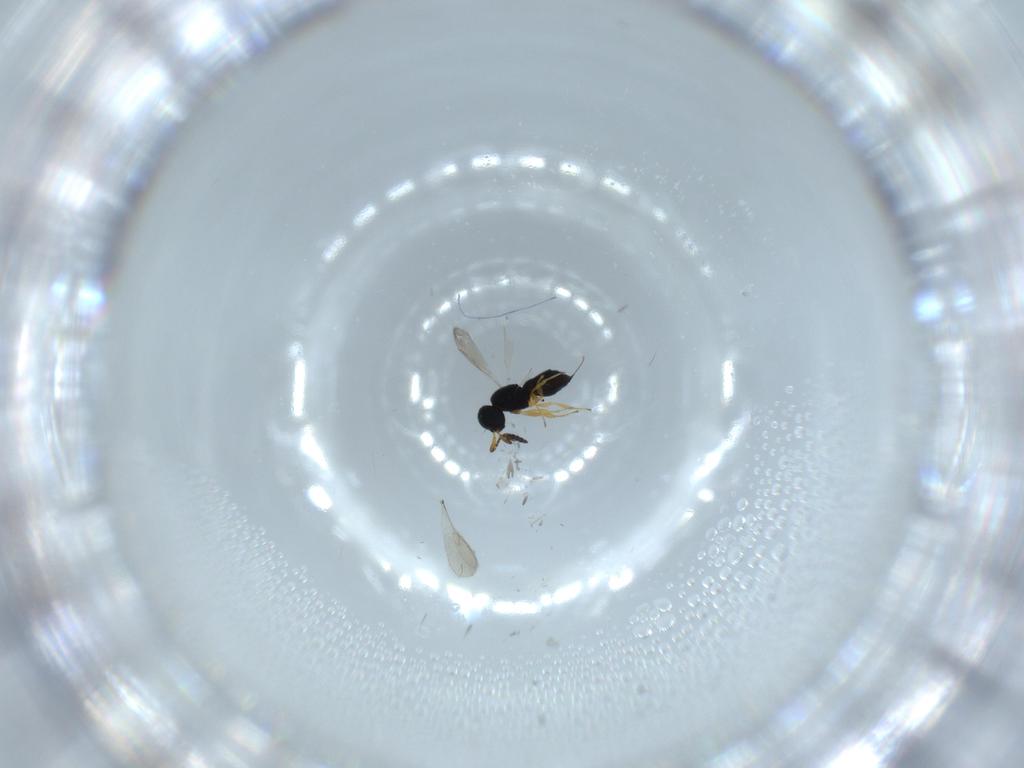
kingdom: Animalia
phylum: Arthropoda
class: Insecta
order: Hymenoptera
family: Scelionidae
